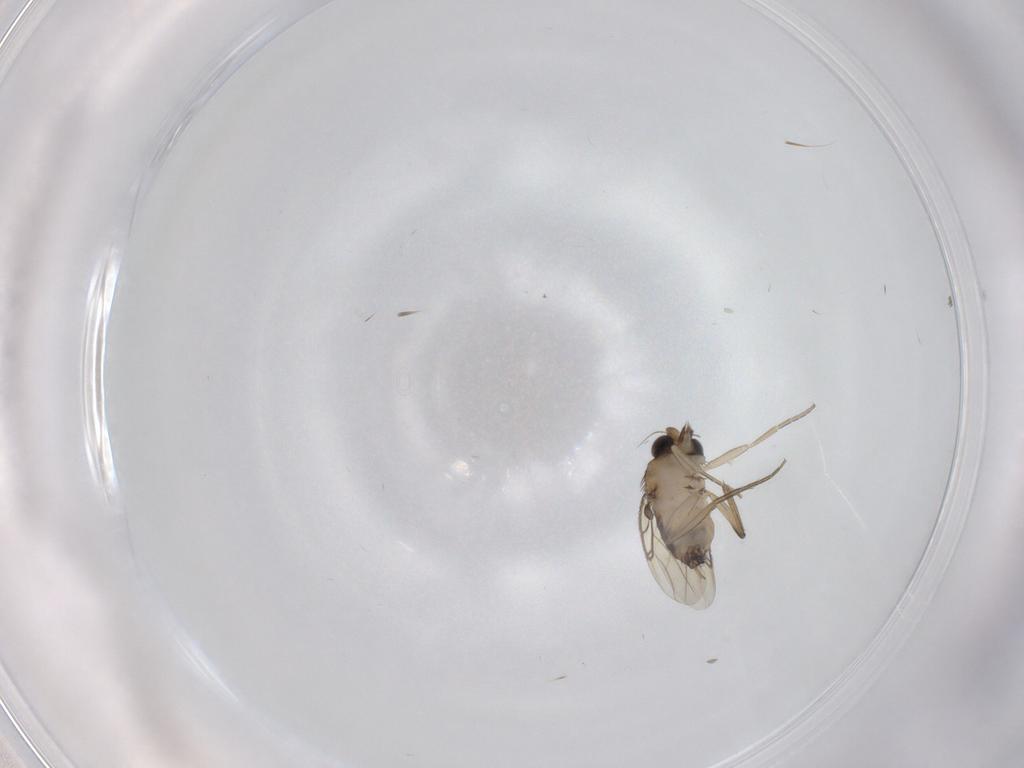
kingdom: Animalia
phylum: Arthropoda
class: Insecta
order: Diptera
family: Phoridae
